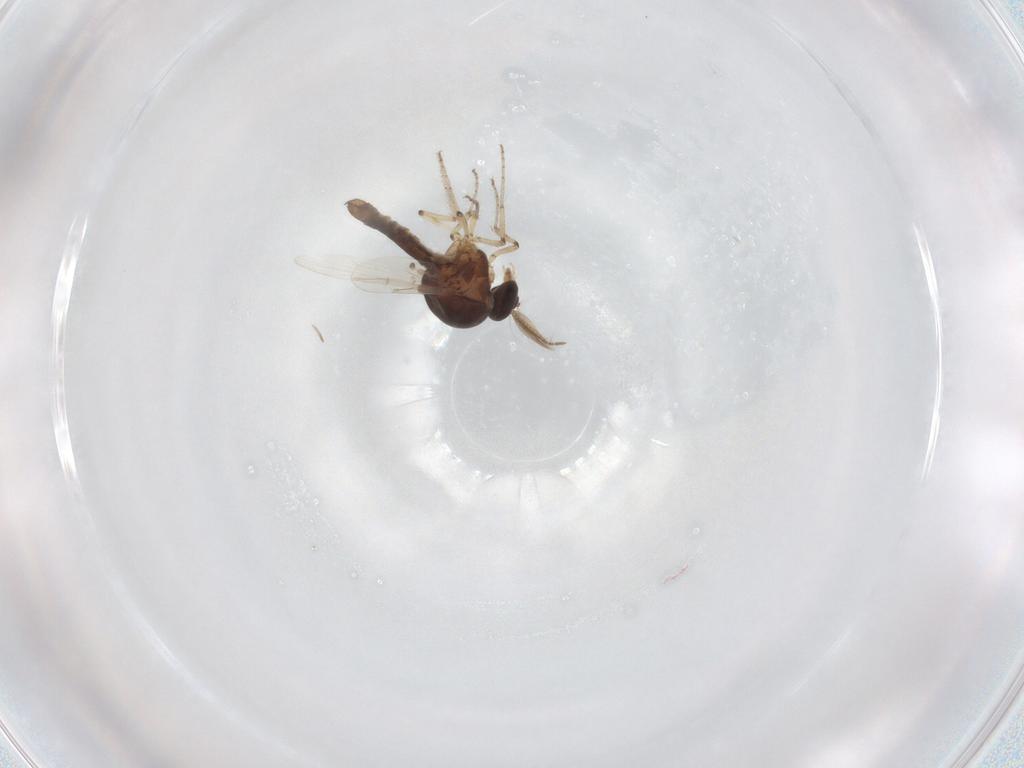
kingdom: Animalia
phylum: Arthropoda
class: Insecta
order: Diptera
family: Ceratopogonidae
